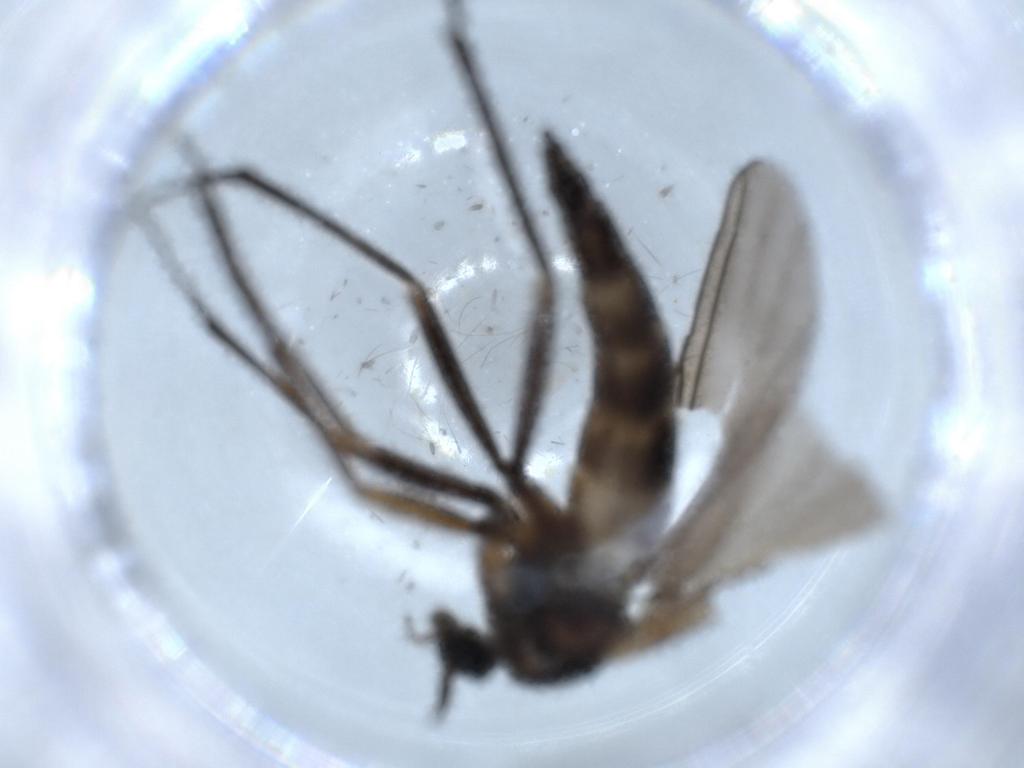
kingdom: Animalia
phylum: Arthropoda
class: Insecta
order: Diptera
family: Sciaridae
